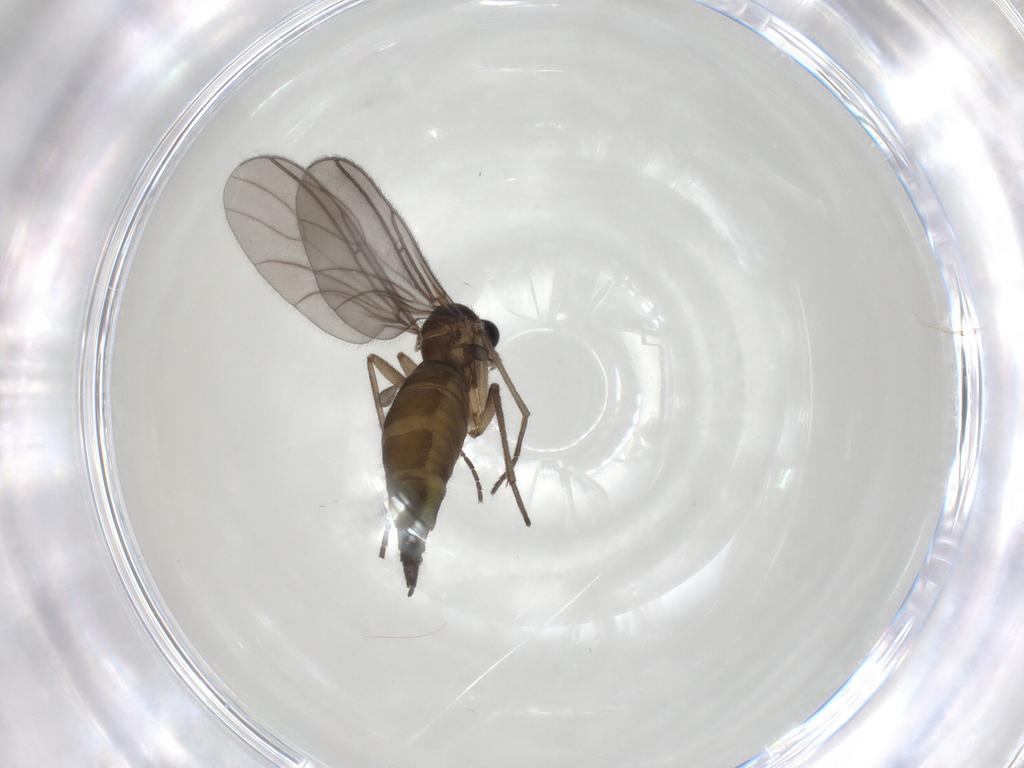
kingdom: Animalia
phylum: Arthropoda
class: Insecta
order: Diptera
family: Sciaridae
